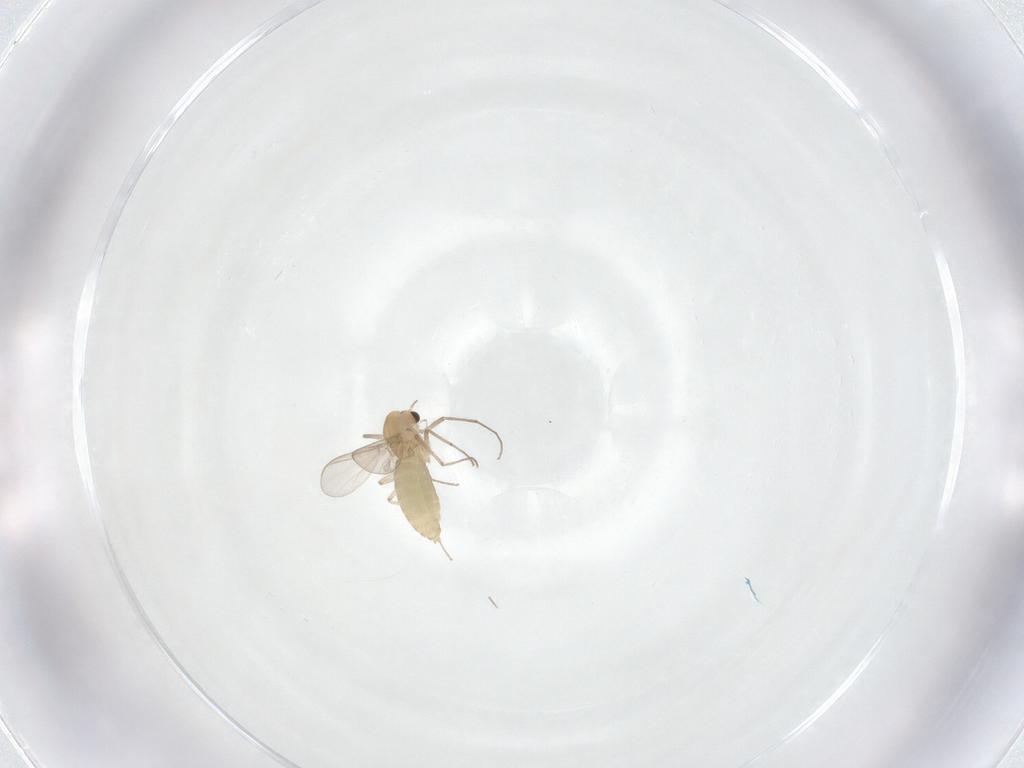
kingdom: Animalia
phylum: Arthropoda
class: Insecta
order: Diptera
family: Chironomidae
